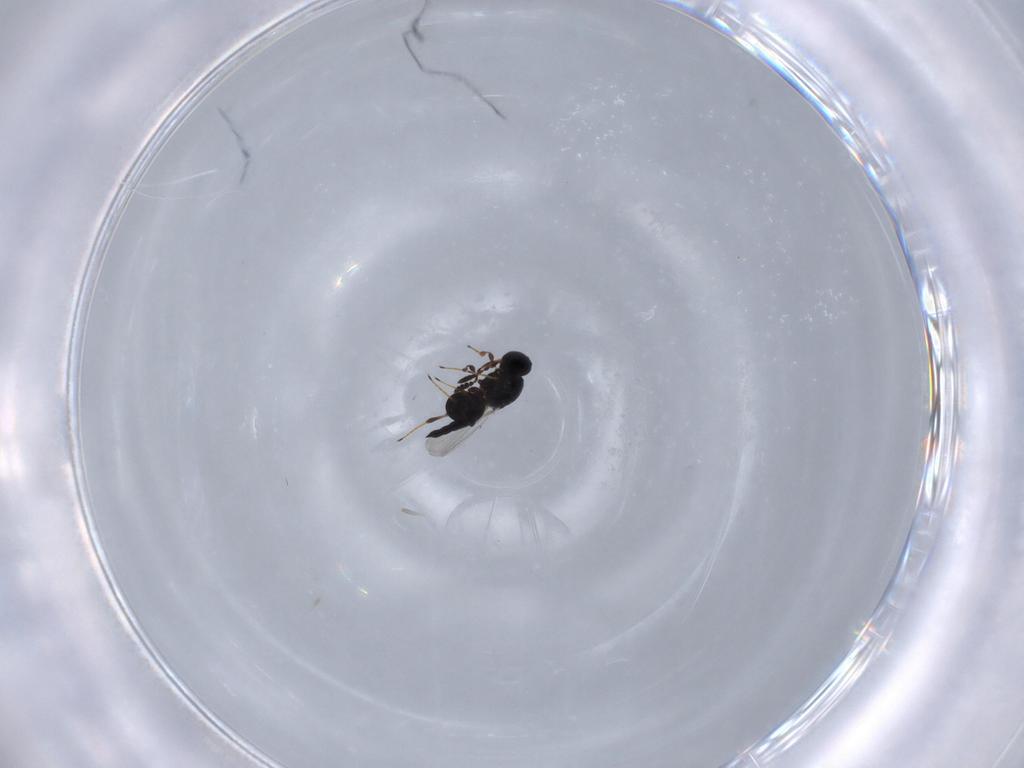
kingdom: Animalia
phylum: Arthropoda
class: Insecta
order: Hymenoptera
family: Platygastridae
